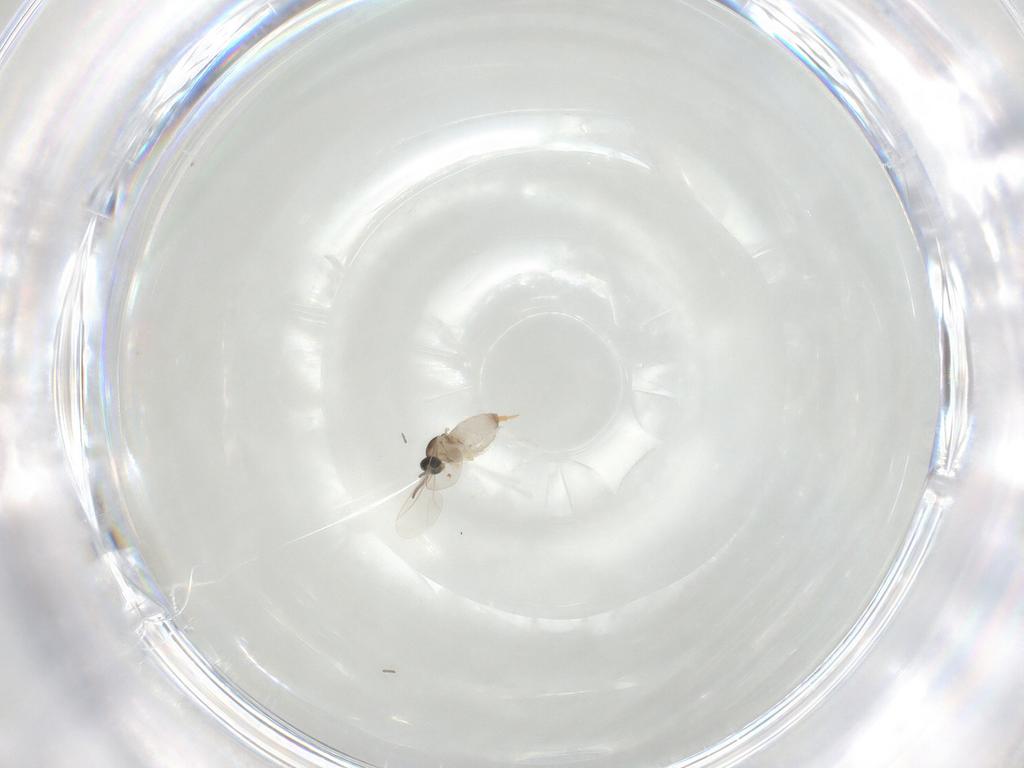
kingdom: Animalia
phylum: Arthropoda
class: Insecta
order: Diptera
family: Cecidomyiidae
